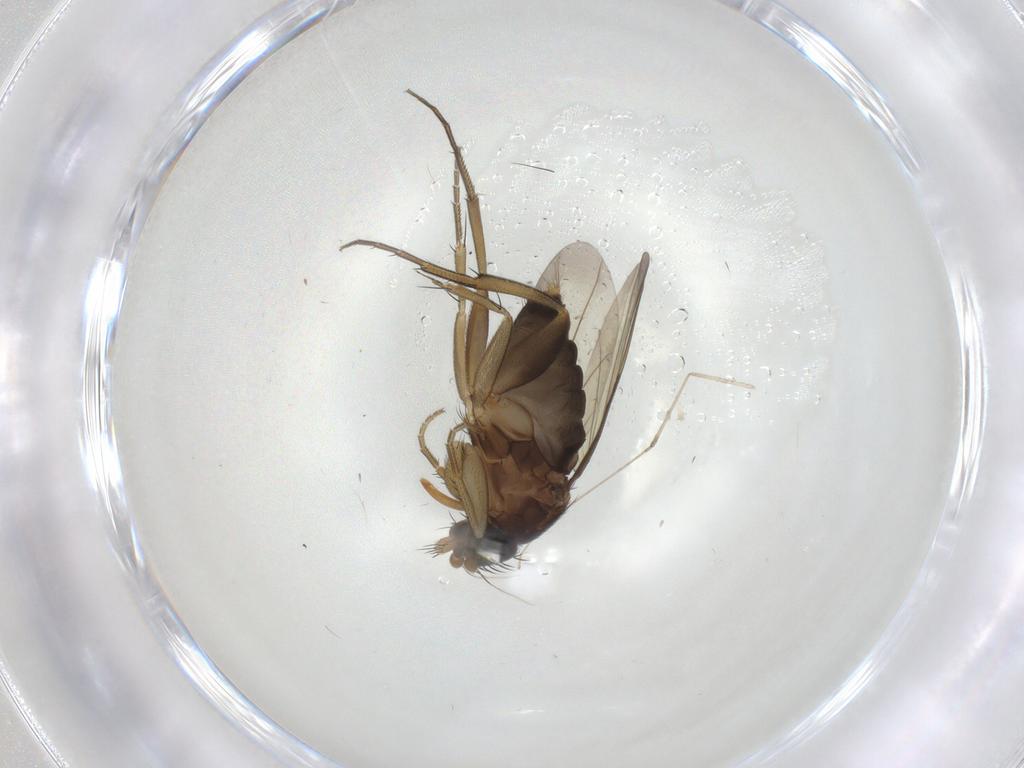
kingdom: Animalia
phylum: Arthropoda
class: Insecta
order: Diptera
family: Phoridae
